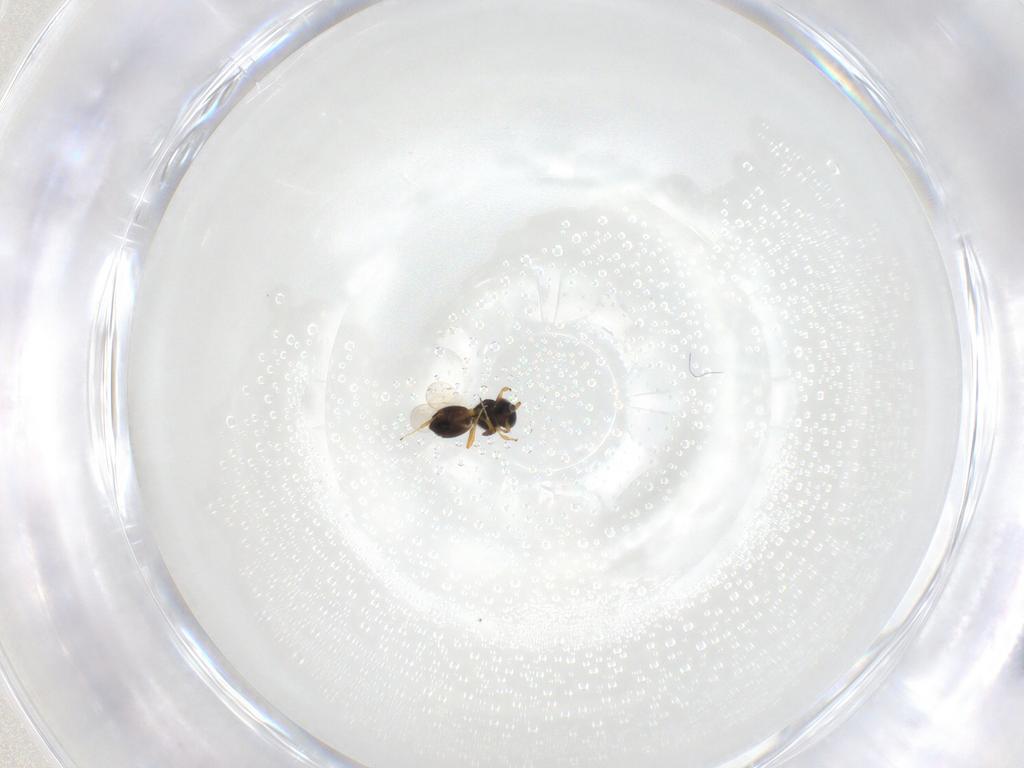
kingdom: Animalia
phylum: Arthropoda
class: Insecta
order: Hymenoptera
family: Platygastridae
